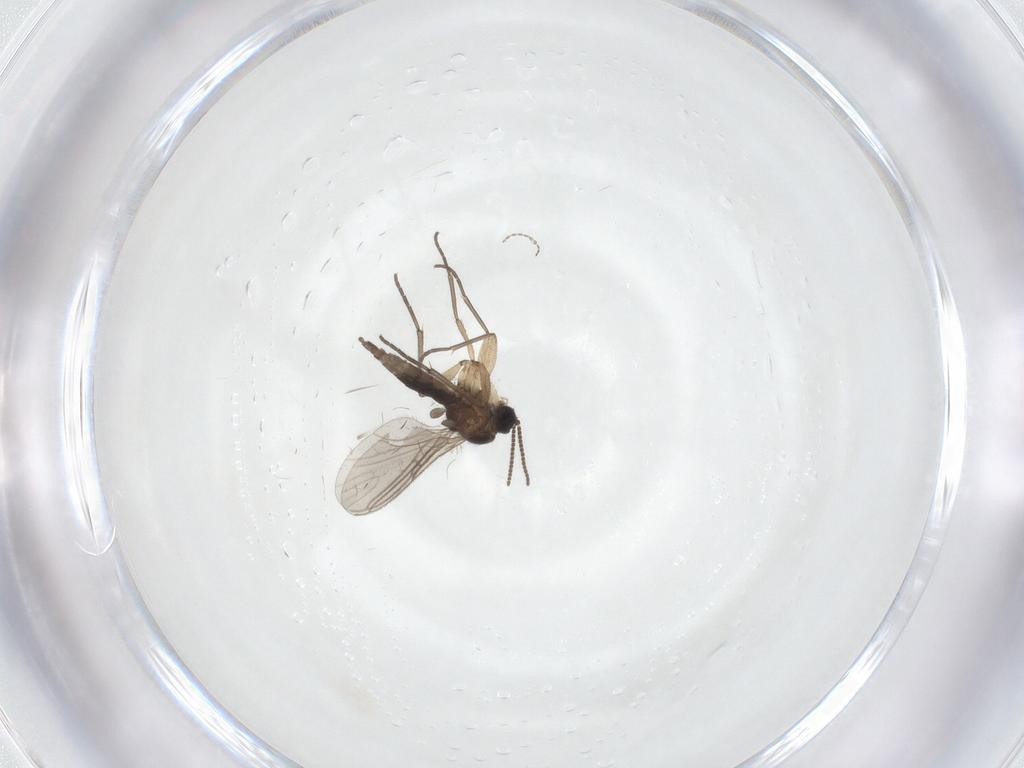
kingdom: Animalia
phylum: Arthropoda
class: Insecta
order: Diptera
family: Cecidomyiidae
